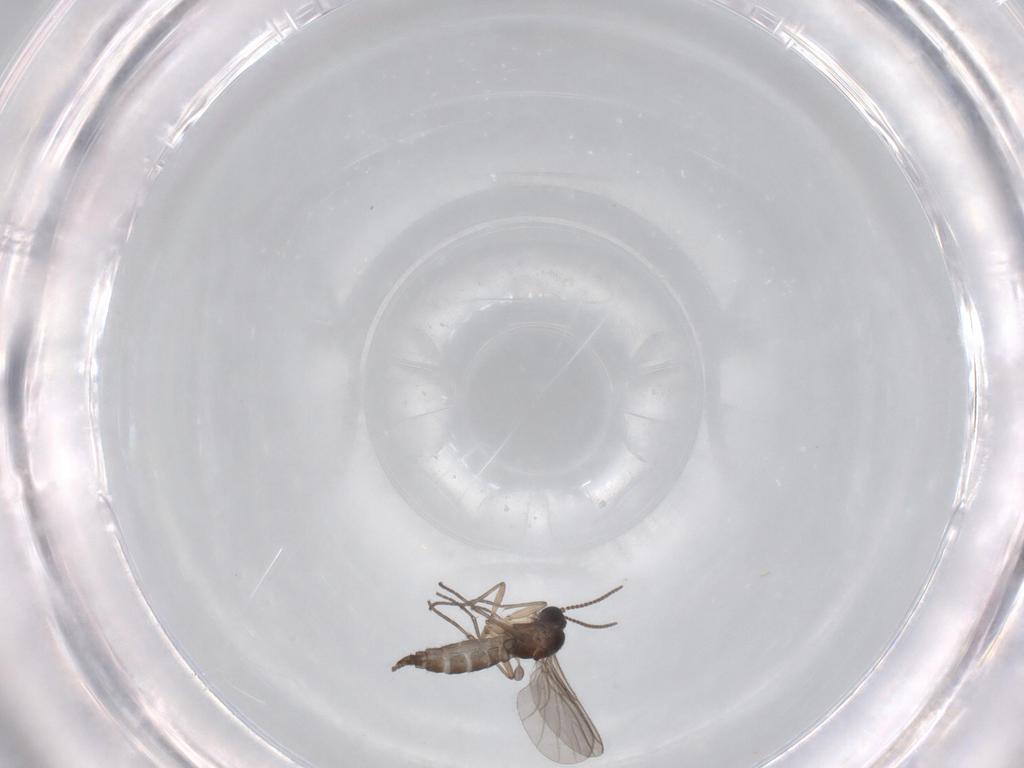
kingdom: Animalia
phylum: Arthropoda
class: Insecta
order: Diptera
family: Sciaridae
